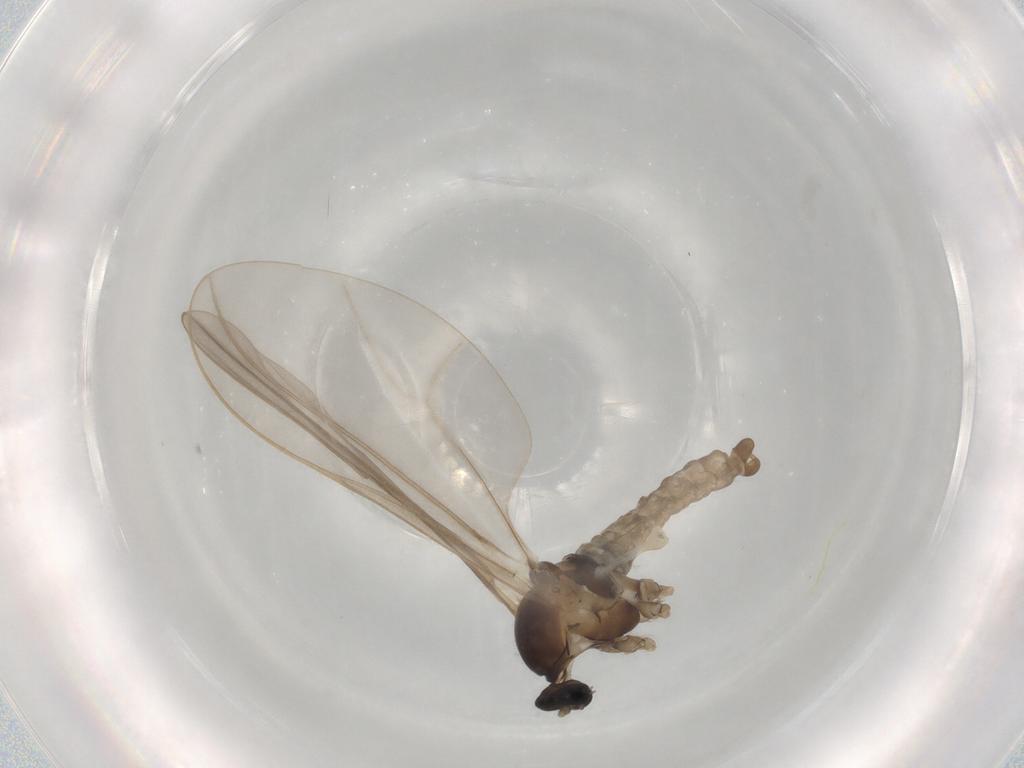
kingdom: Animalia
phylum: Arthropoda
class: Insecta
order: Diptera
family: Cecidomyiidae
